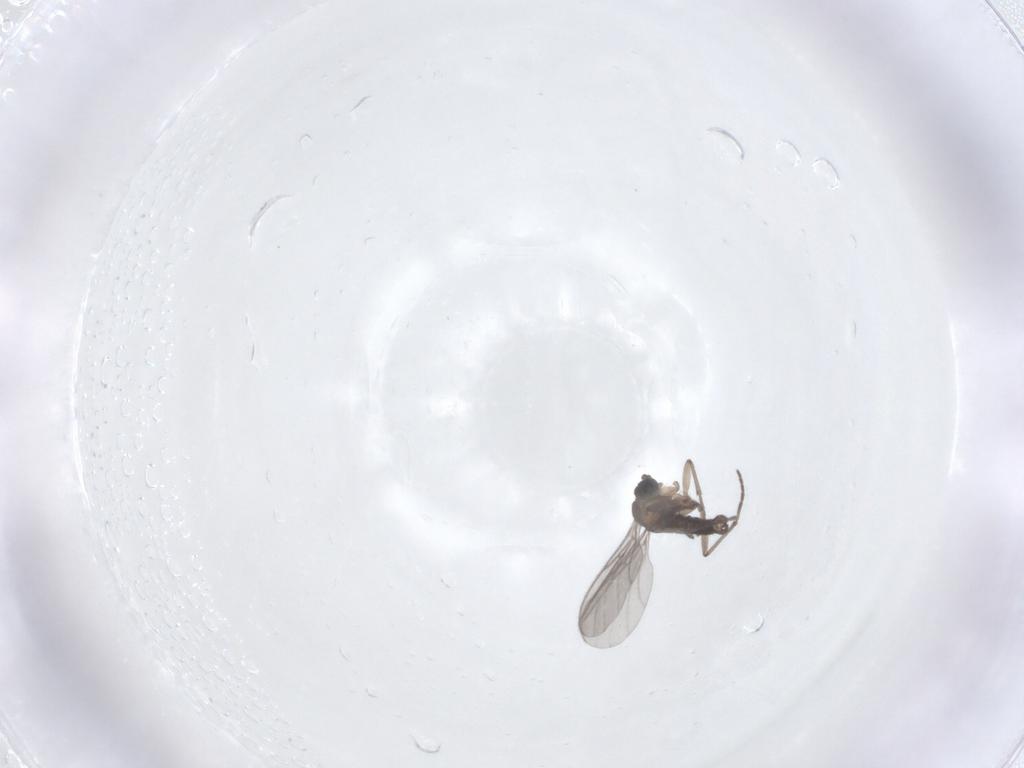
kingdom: Animalia
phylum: Arthropoda
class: Insecta
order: Diptera
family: Sciaridae
